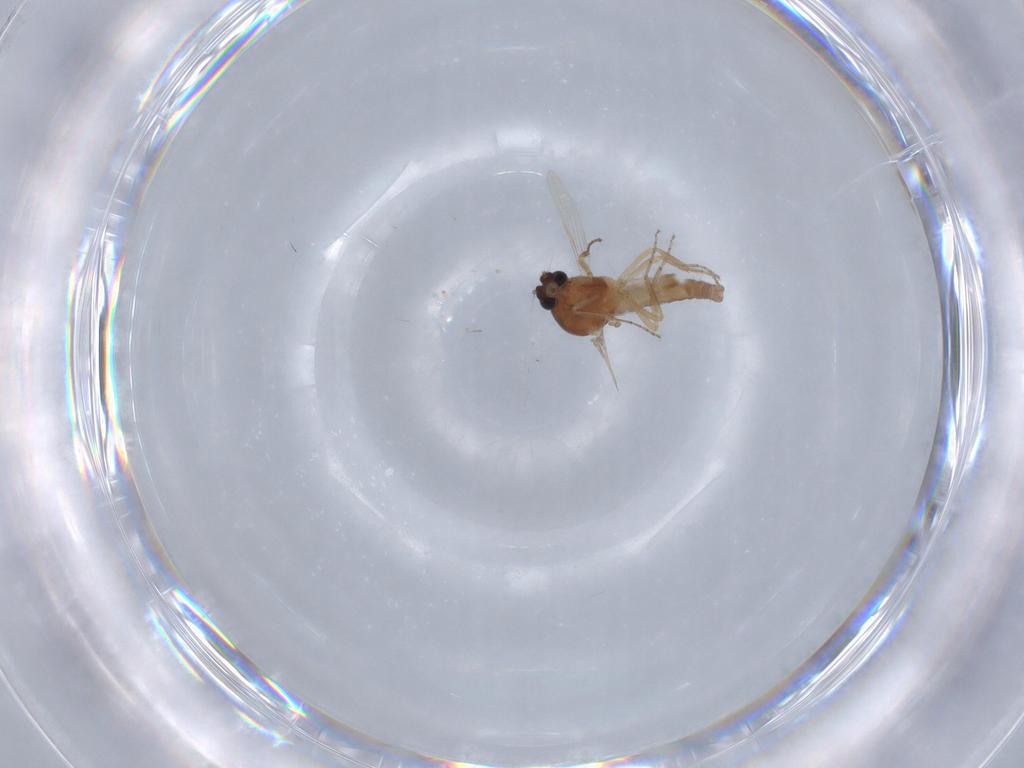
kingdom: Animalia
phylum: Arthropoda
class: Insecta
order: Diptera
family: Ceratopogonidae
